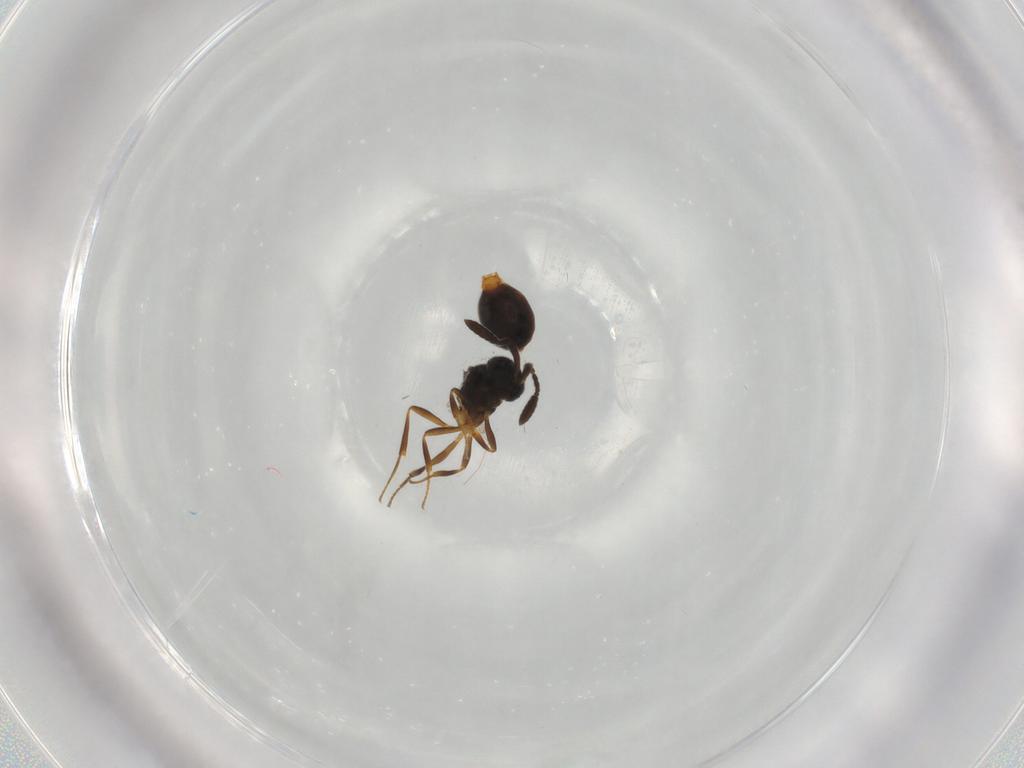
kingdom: Animalia
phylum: Arthropoda
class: Insecta
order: Hymenoptera
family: Scelionidae
